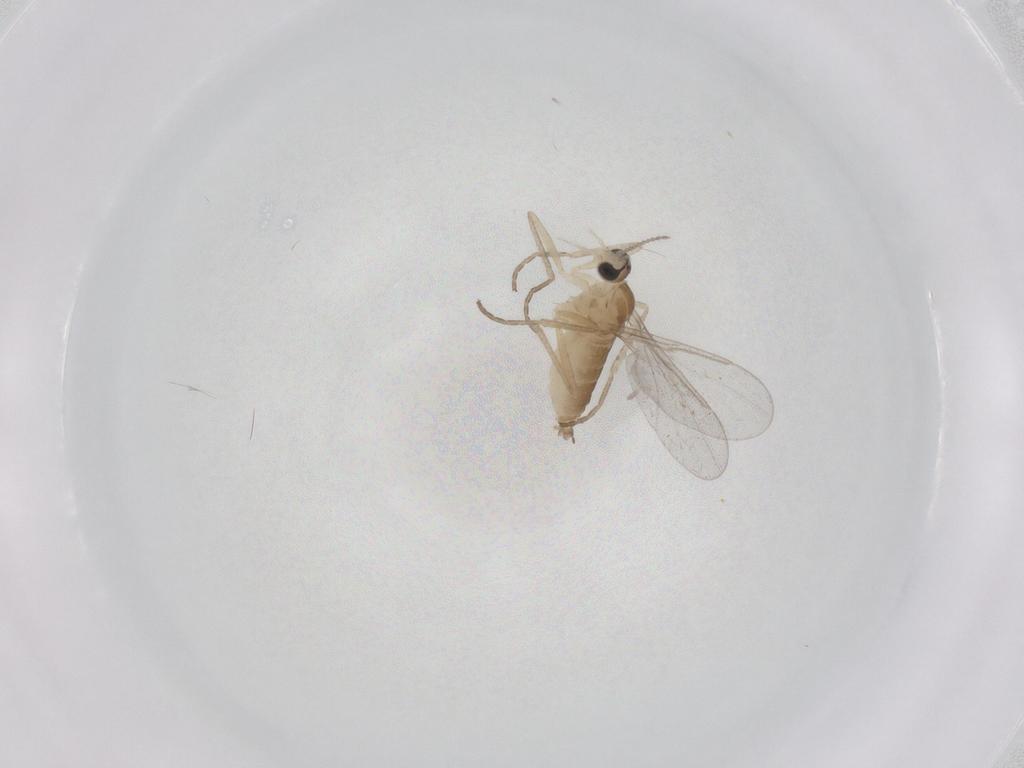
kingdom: Animalia
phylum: Arthropoda
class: Insecta
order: Diptera
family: Cecidomyiidae
